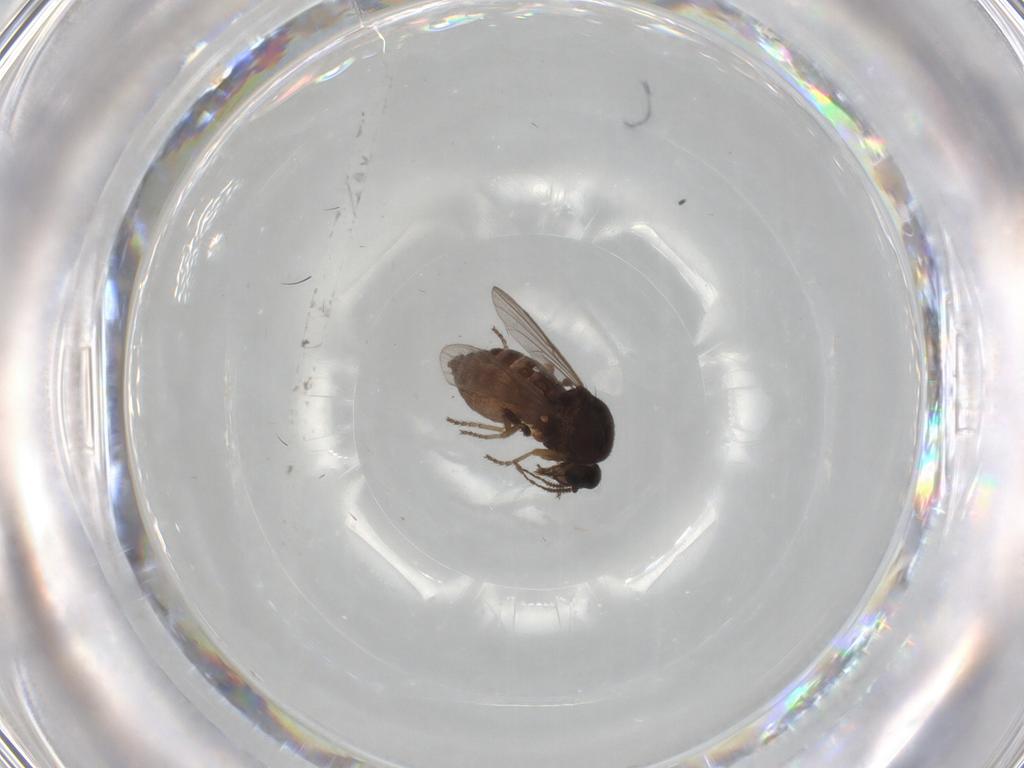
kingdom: Animalia
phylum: Arthropoda
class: Insecta
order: Diptera
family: Ceratopogonidae
